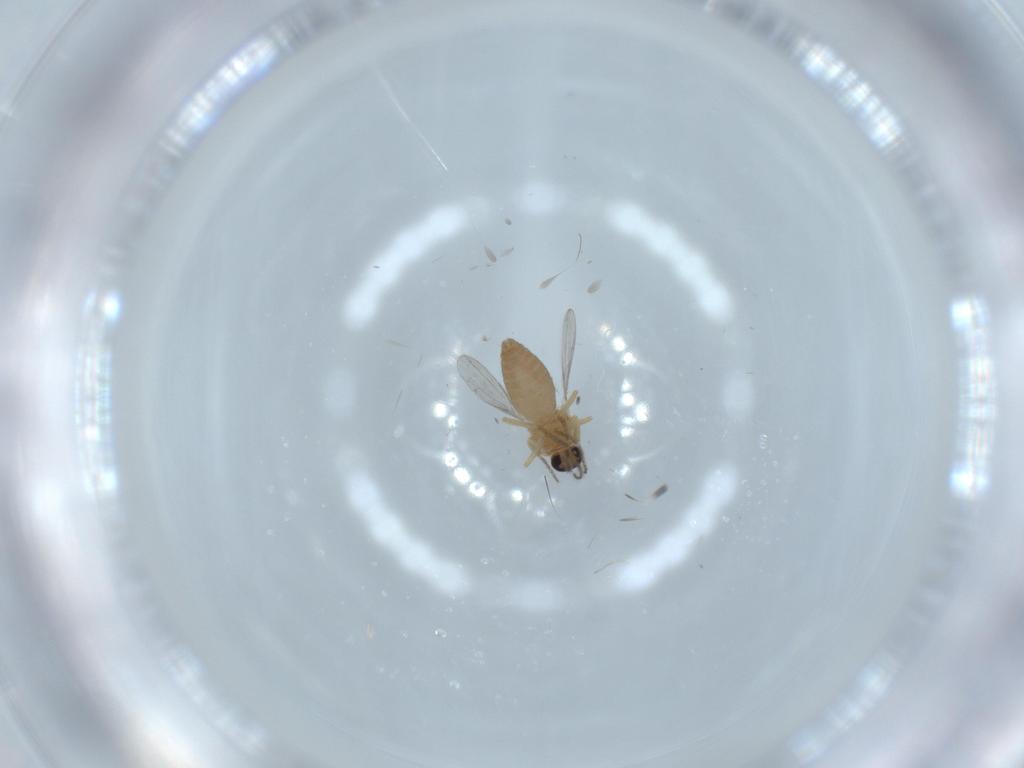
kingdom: Animalia
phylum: Arthropoda
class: Insecta
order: Diptera
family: Ceratopogonidae
